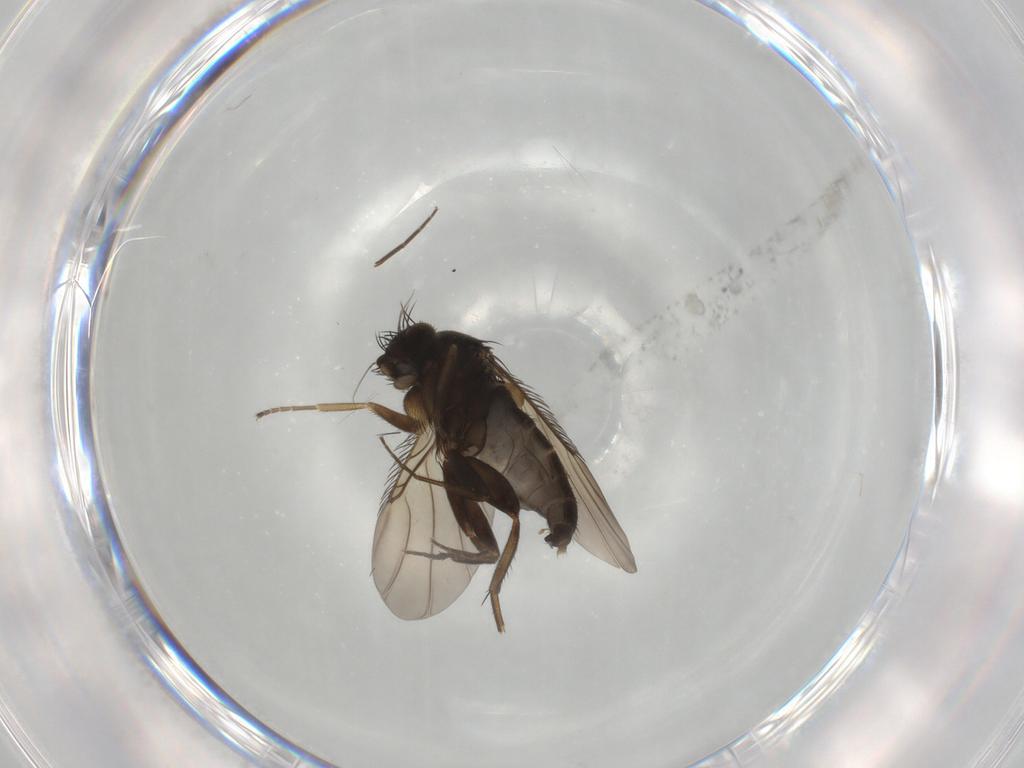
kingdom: Animalia
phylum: Arthropoda
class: Insecta
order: Diptera
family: Phoridae
